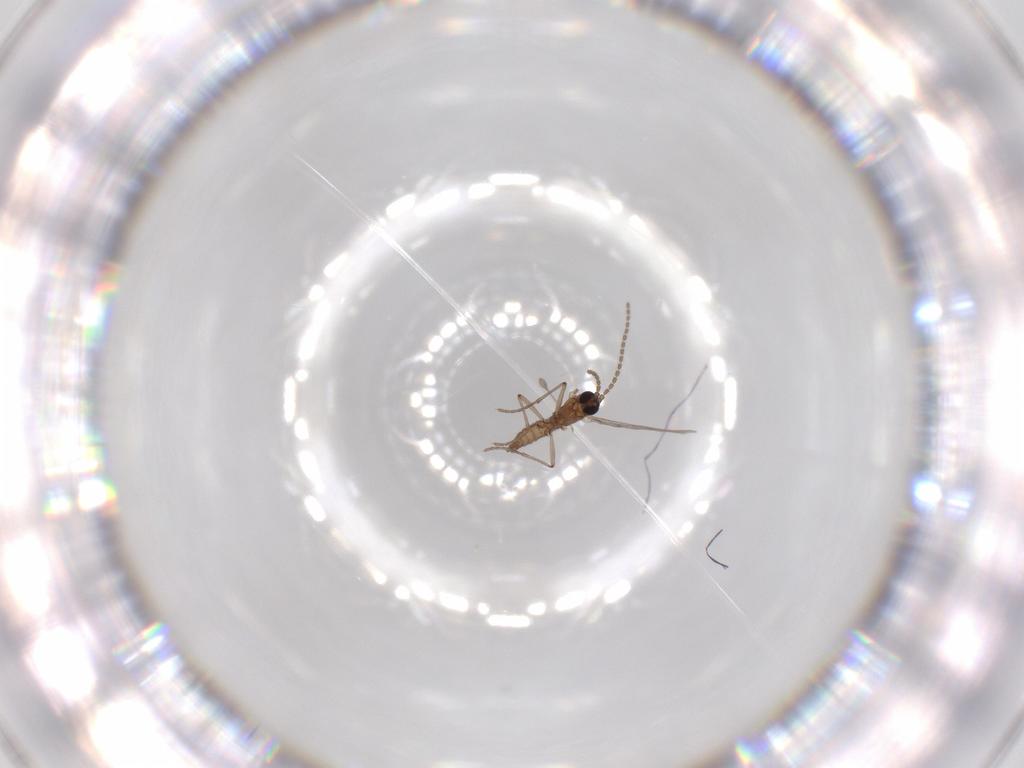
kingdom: Animalia
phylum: Arthropoda
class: Insecta
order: Diptera
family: Sciaridae
